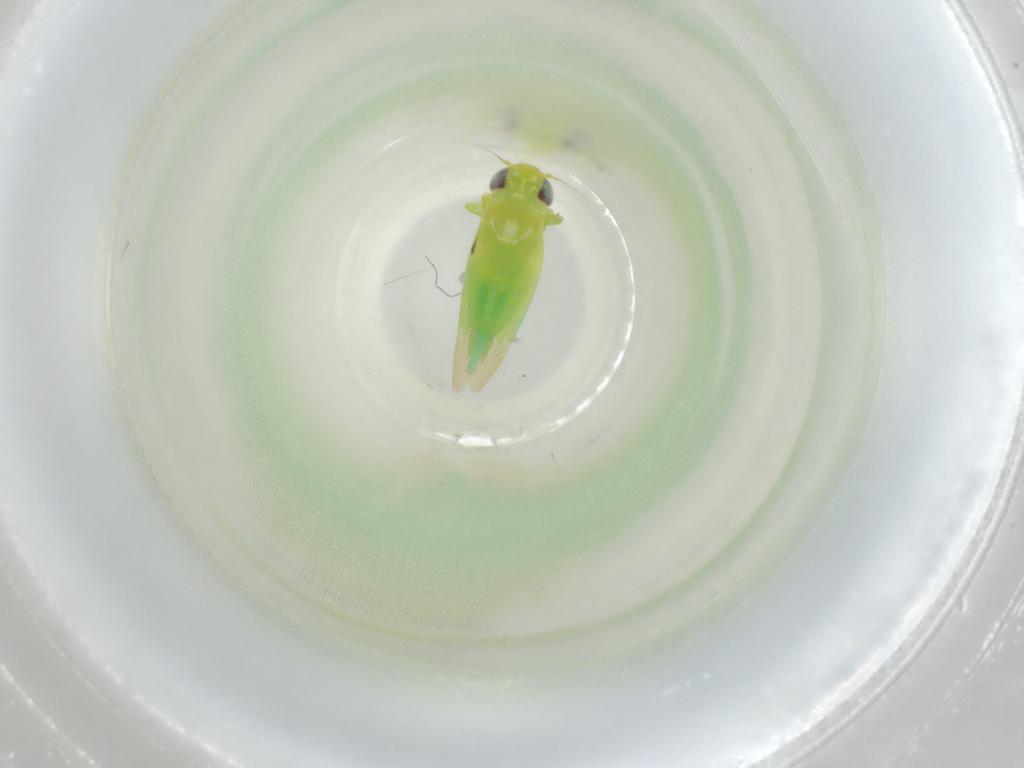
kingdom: Animalia
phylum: Arthropoda
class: Insecta
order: Hemiptera
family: Cicadellidae
